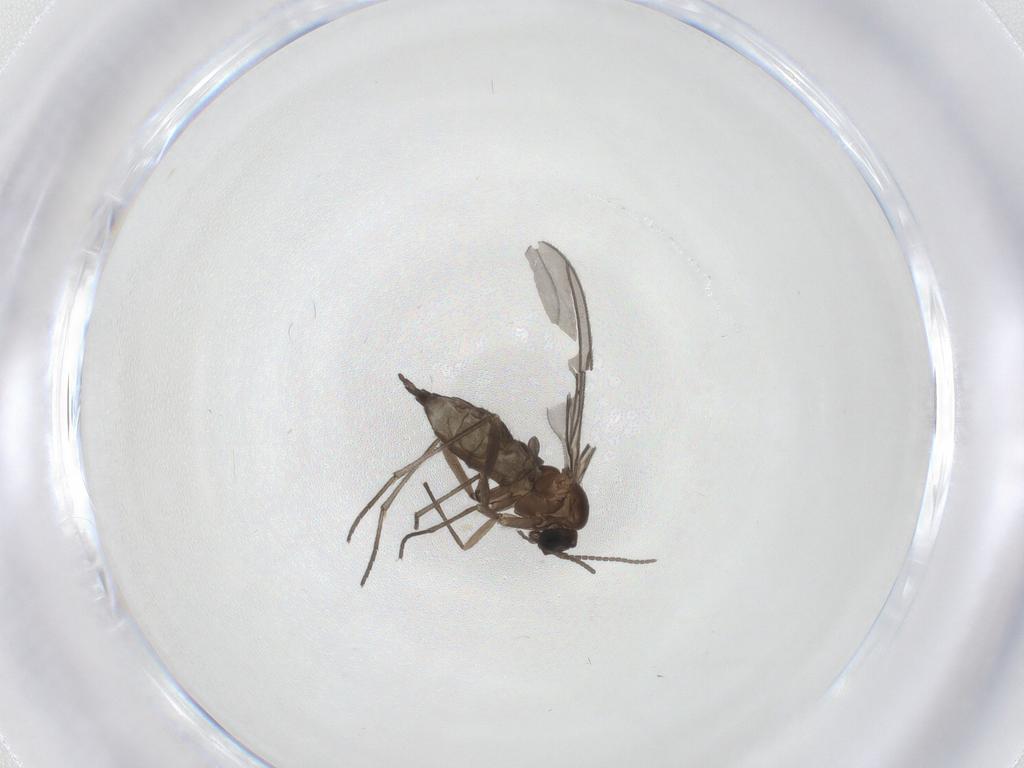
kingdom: Animalia
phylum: Arthropoda
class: Insecta
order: Diptera
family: Sciaridae
